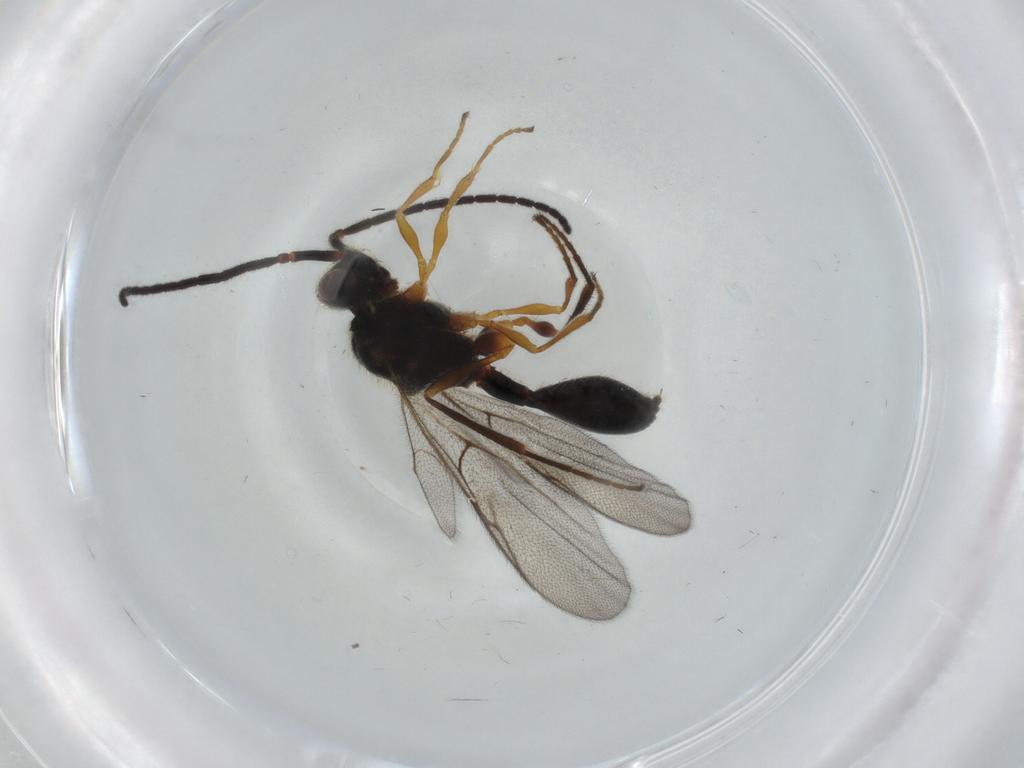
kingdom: Animalia
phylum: Arthropoda
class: Insecta
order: Hymenoptera
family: Diapriidae
